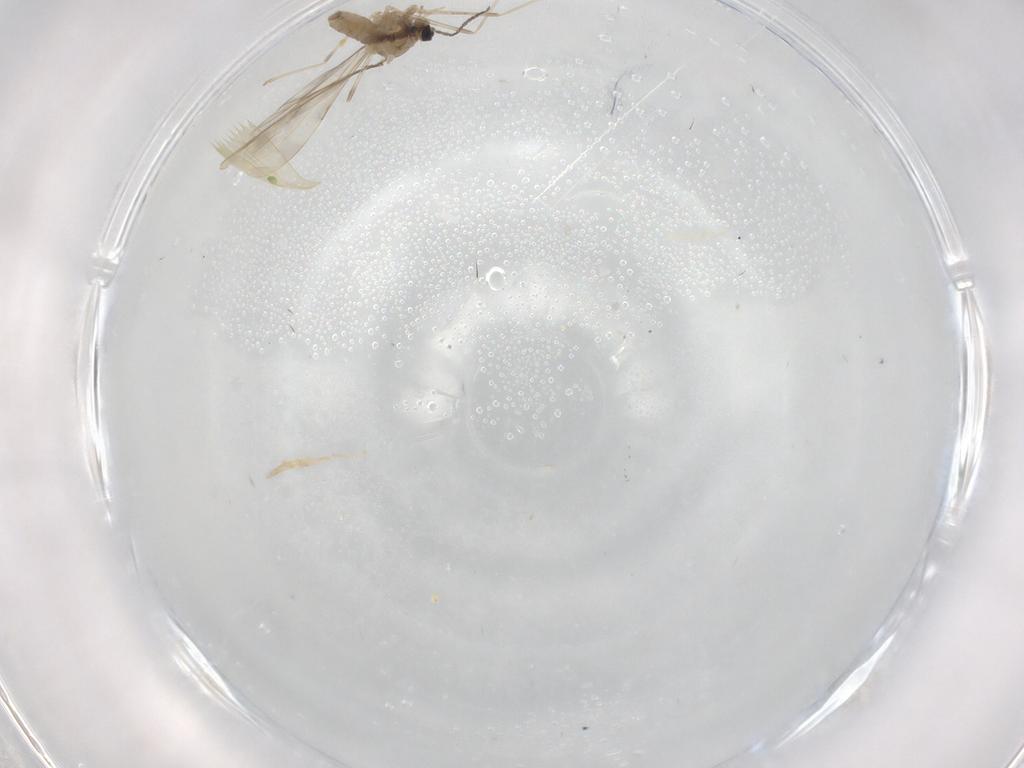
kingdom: Animalia
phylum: Arthropoda
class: Insecta
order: Diptera
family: Cecidomyiidae
